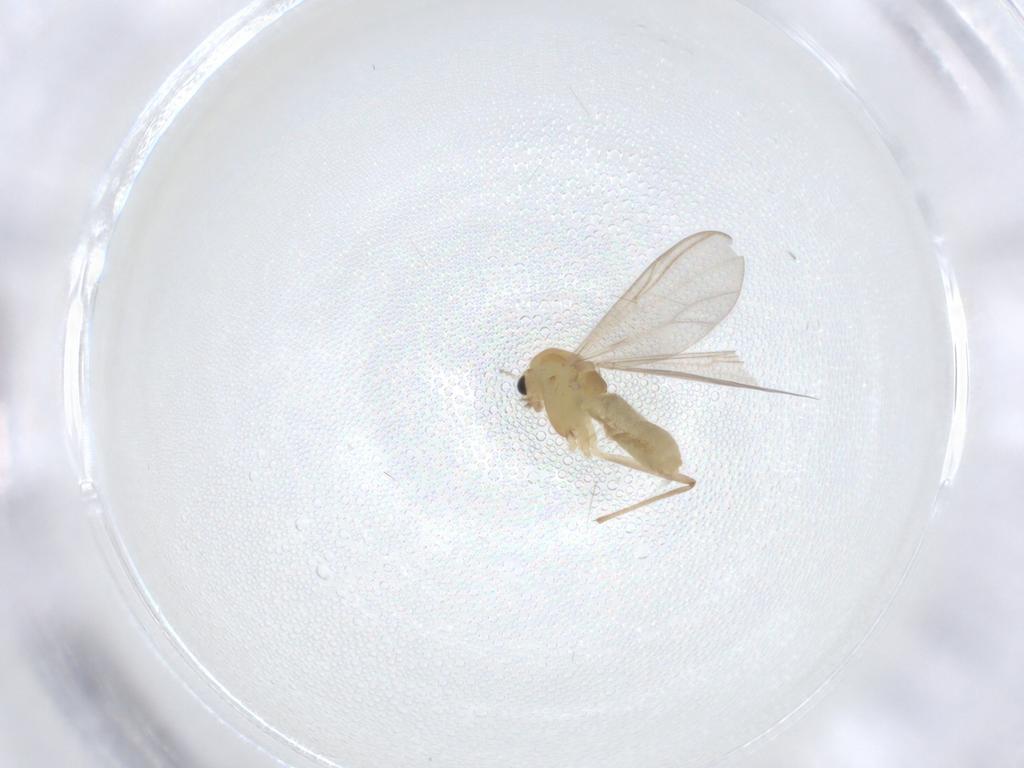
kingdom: Animalia
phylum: Arthropoda
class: Insecta
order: Diptera
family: Chironomidae
